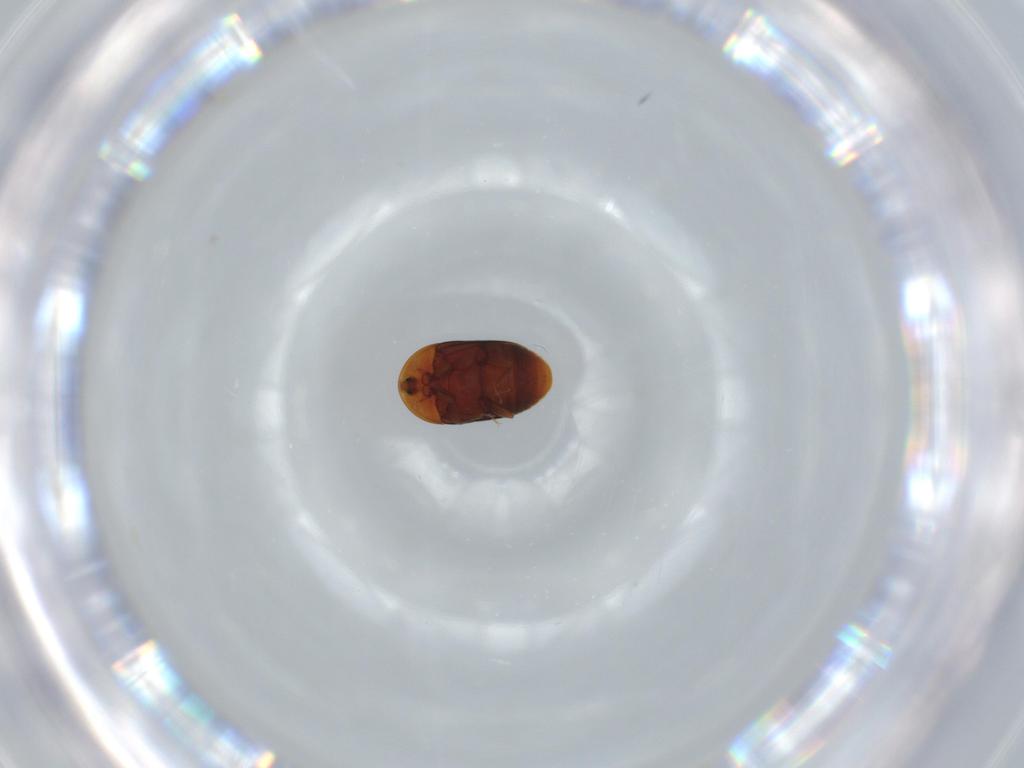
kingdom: Animalia
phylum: Arthropoda
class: Insecta
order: Coleoptera
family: Corylophidae
